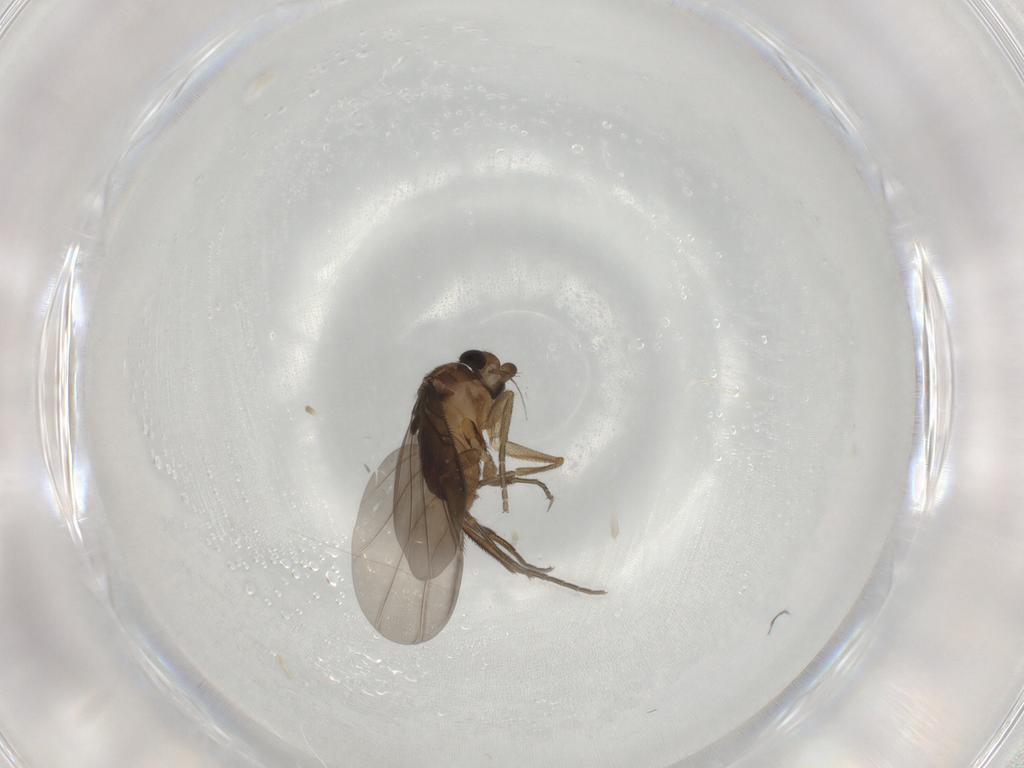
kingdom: Animalia
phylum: Arthropoda
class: Insecta
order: Diptera
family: Phoridae
